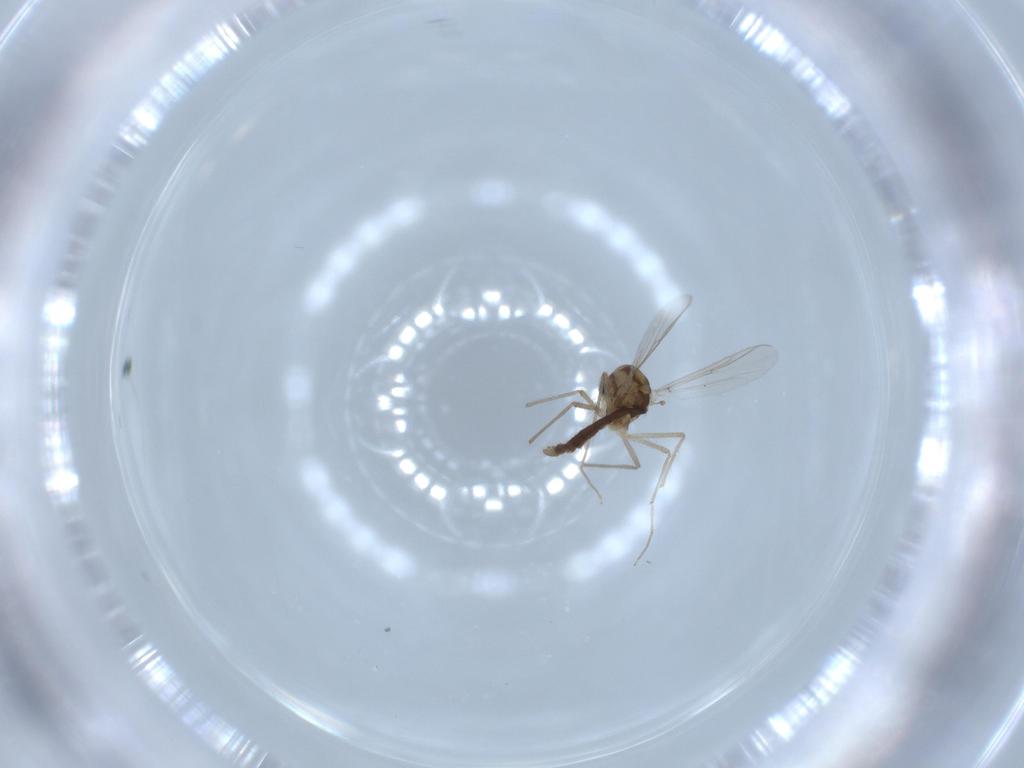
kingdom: Animalia
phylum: Arthropoda
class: Insecta
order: Diptera
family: Chironomidae
